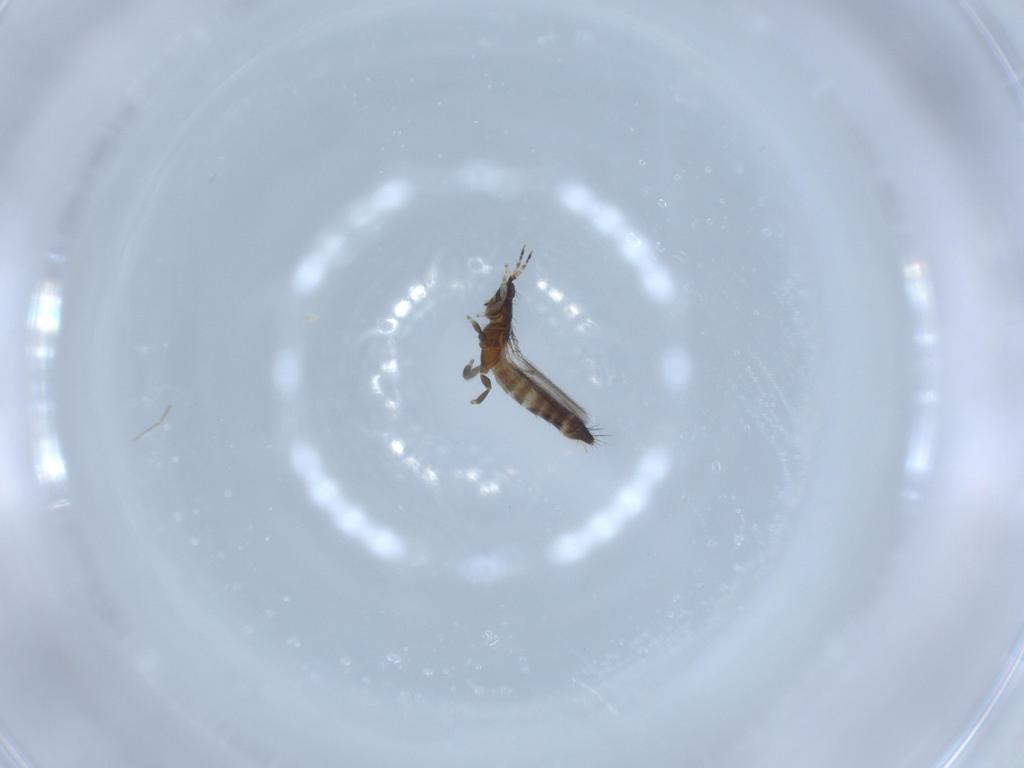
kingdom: Animalia
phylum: Arthropoda
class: Insecta
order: Thysanoptera
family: Thripidae
